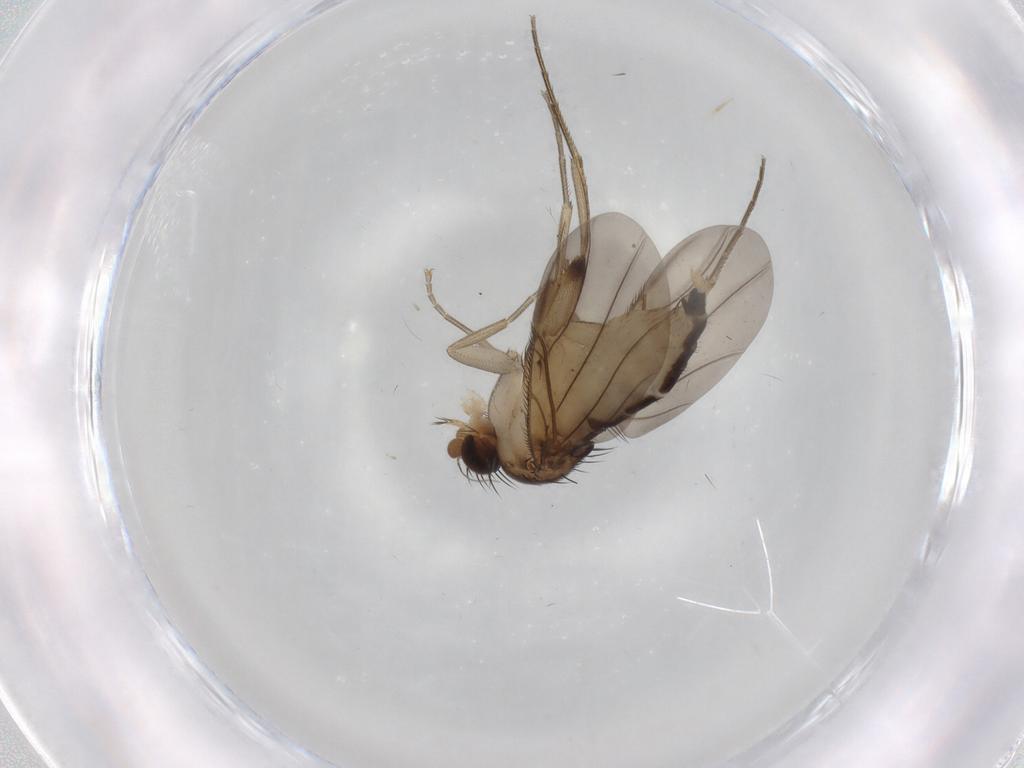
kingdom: Animalia
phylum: Arthropoda
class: Insecta
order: Diptera
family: Phoridae
